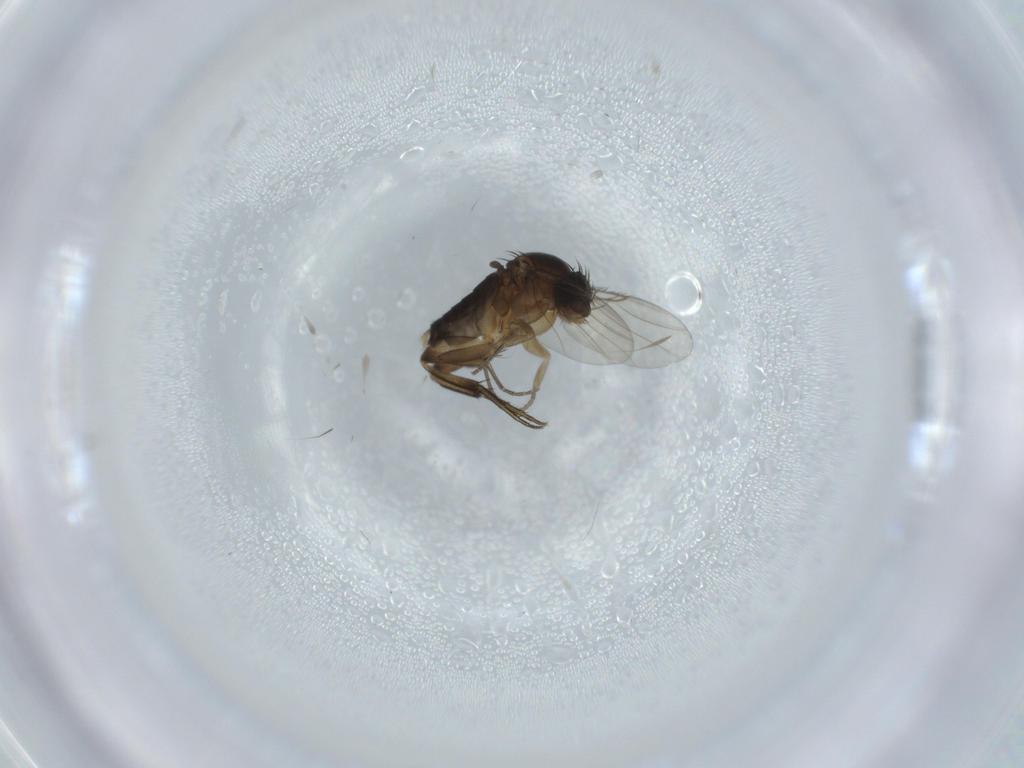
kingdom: Animalia
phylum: Arthropoda
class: Insecta
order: Diptera
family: Phoridae
